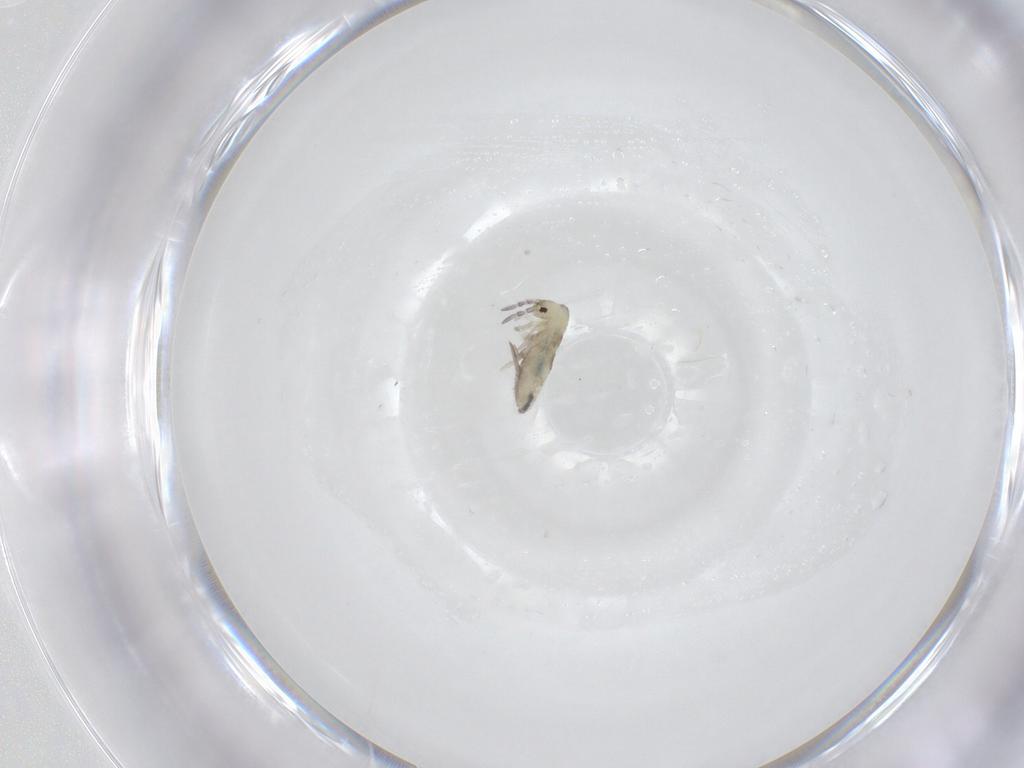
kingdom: Animalia
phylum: Arthropoda
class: Collembola
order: Entomobryomorpha
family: Entomobryidae
